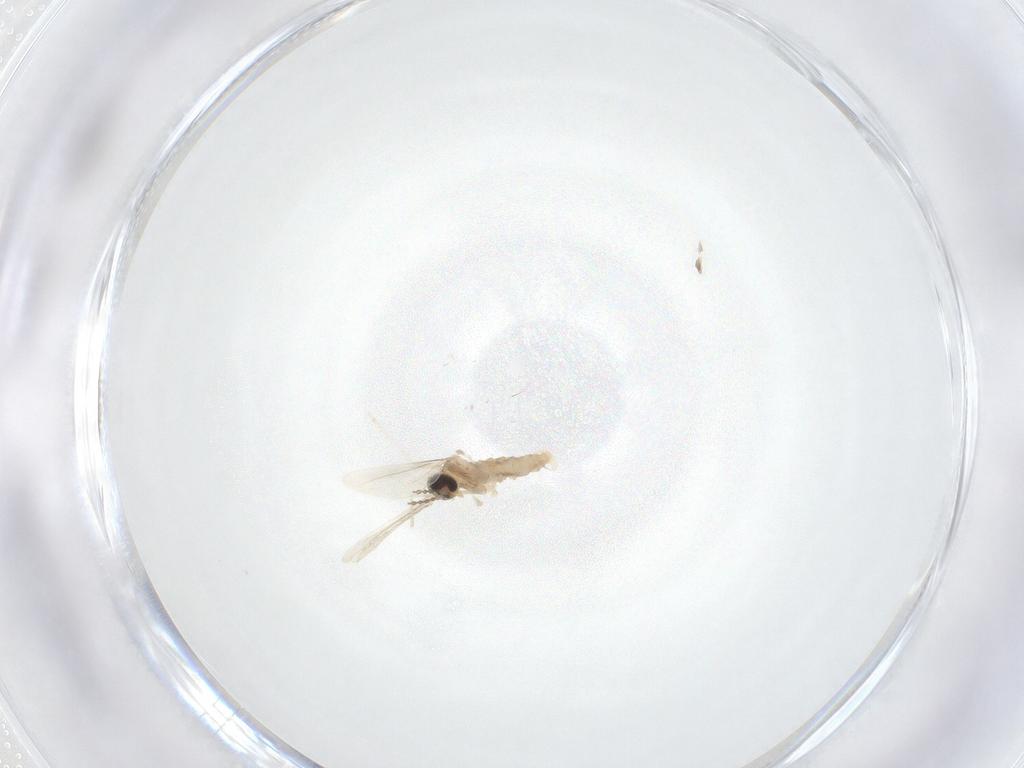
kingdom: Animalia
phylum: Arthropoda
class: Insecta
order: Diptera
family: Cecidomyiidae
